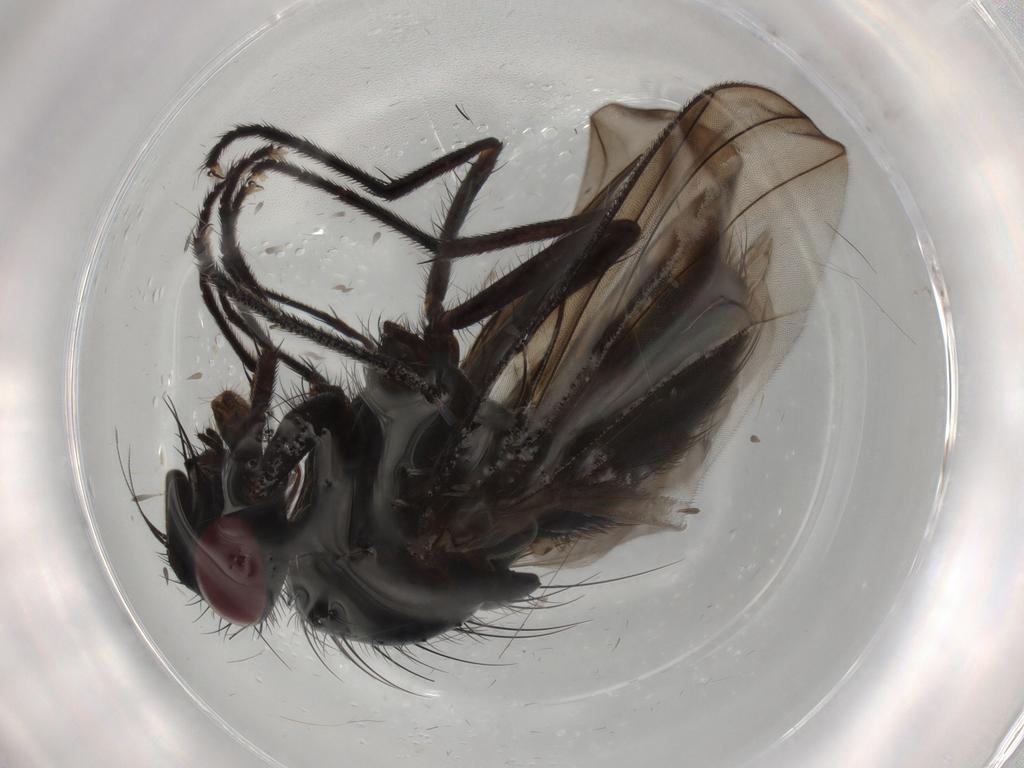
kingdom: Animalia
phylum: Arthropoda
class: Insecta
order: Diptera
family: Muscidae
